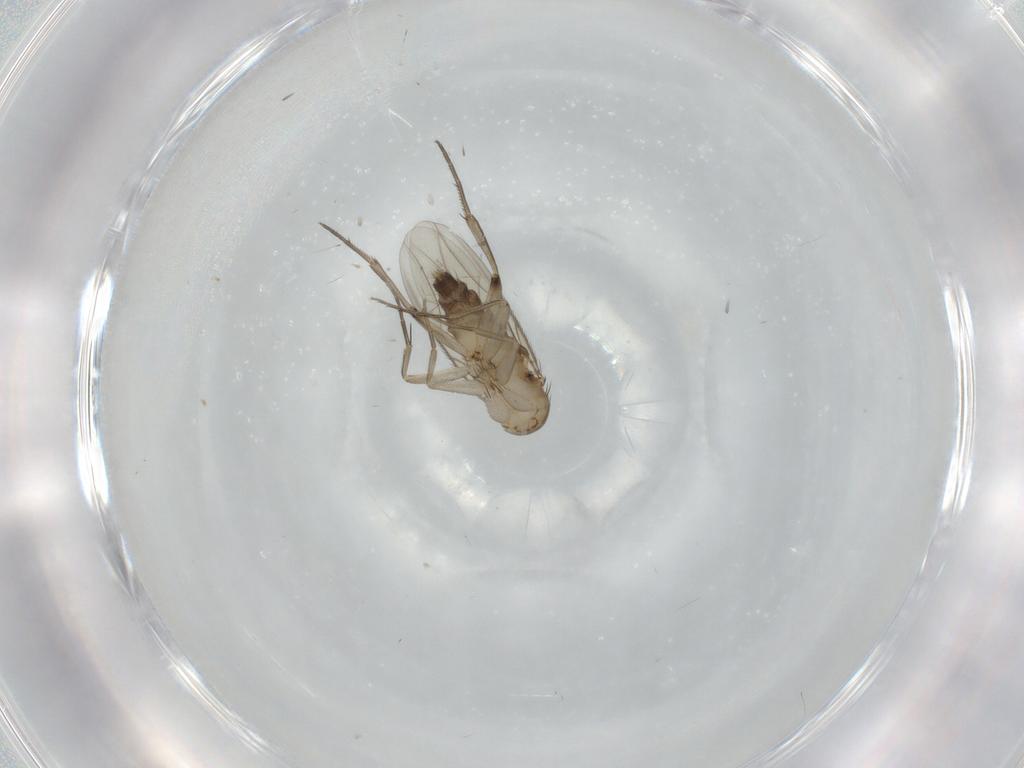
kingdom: Animalia
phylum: Arthropoda
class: Insecta
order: Diptera
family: Phoridae
